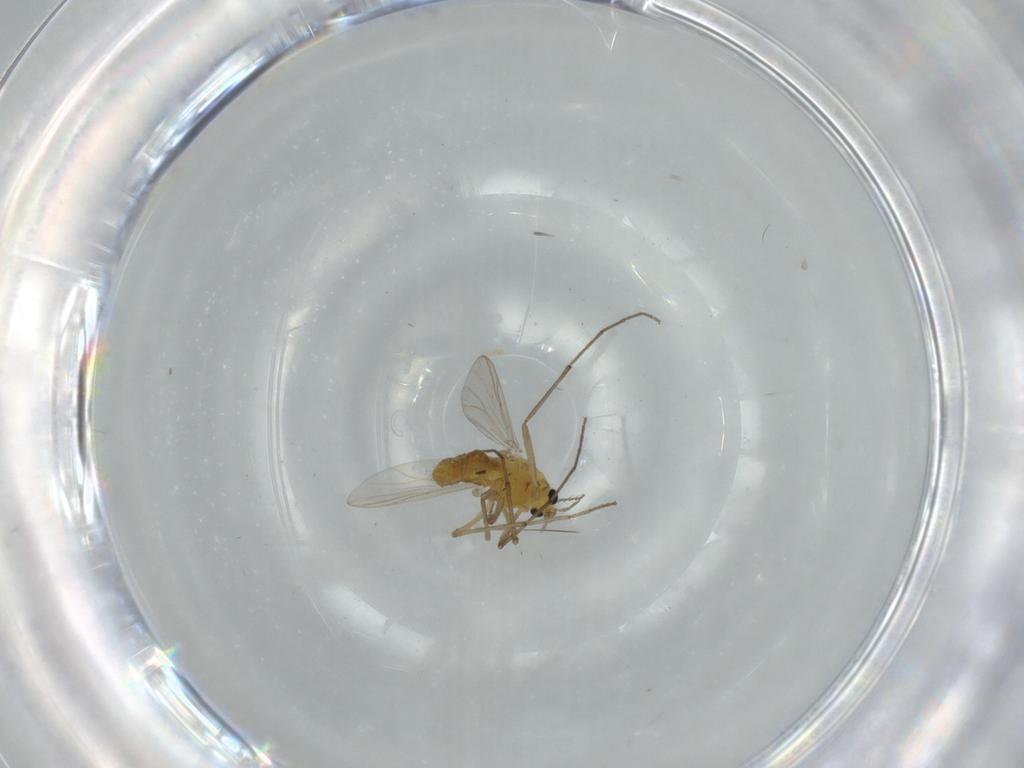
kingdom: Animalia
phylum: Arthropoda
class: Insecta
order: Diptera
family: Chironomidae
